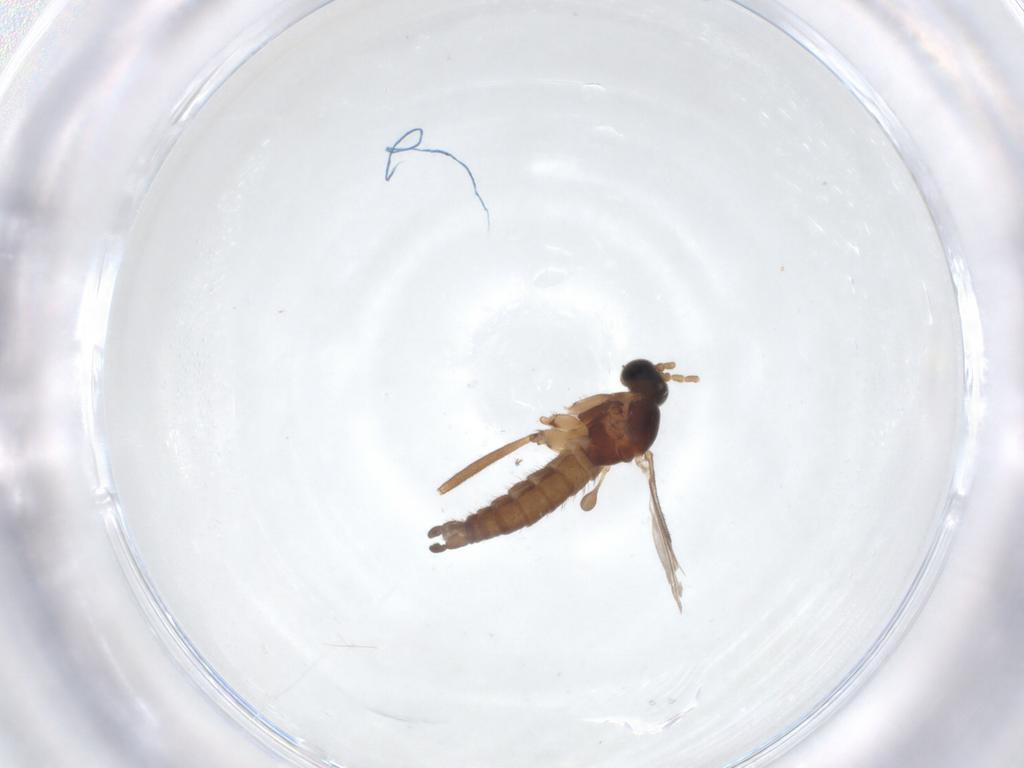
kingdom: Animalia
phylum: Arthropoda
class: Insecta
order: Diptera
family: Sciaridae
